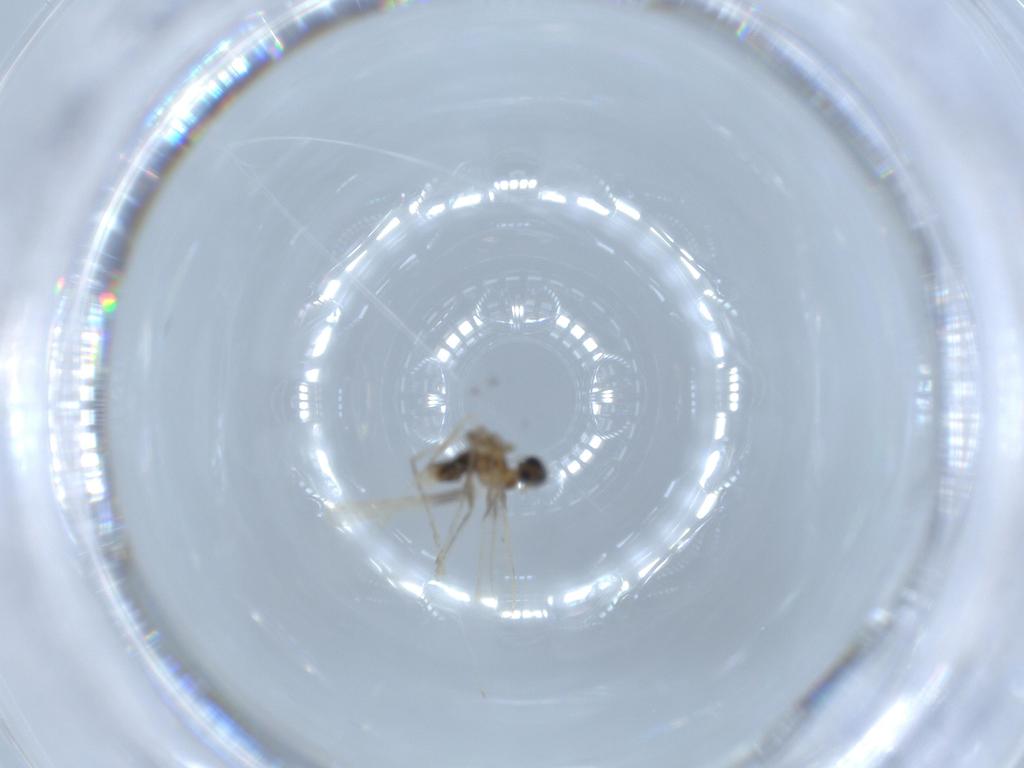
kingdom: Animalia
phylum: Arthropoda
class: Insecta
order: Diptera
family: Cecidomyiidae
